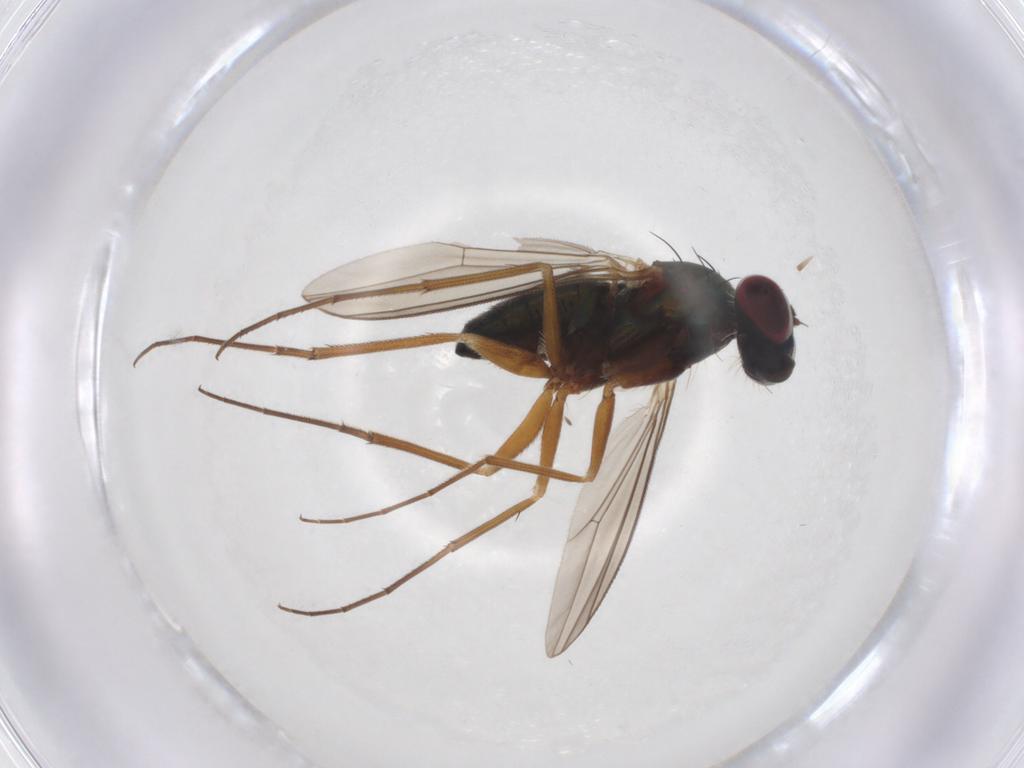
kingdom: Animalia
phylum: Arthropoda
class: Insecta
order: Diptera
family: Dolichopodidae
